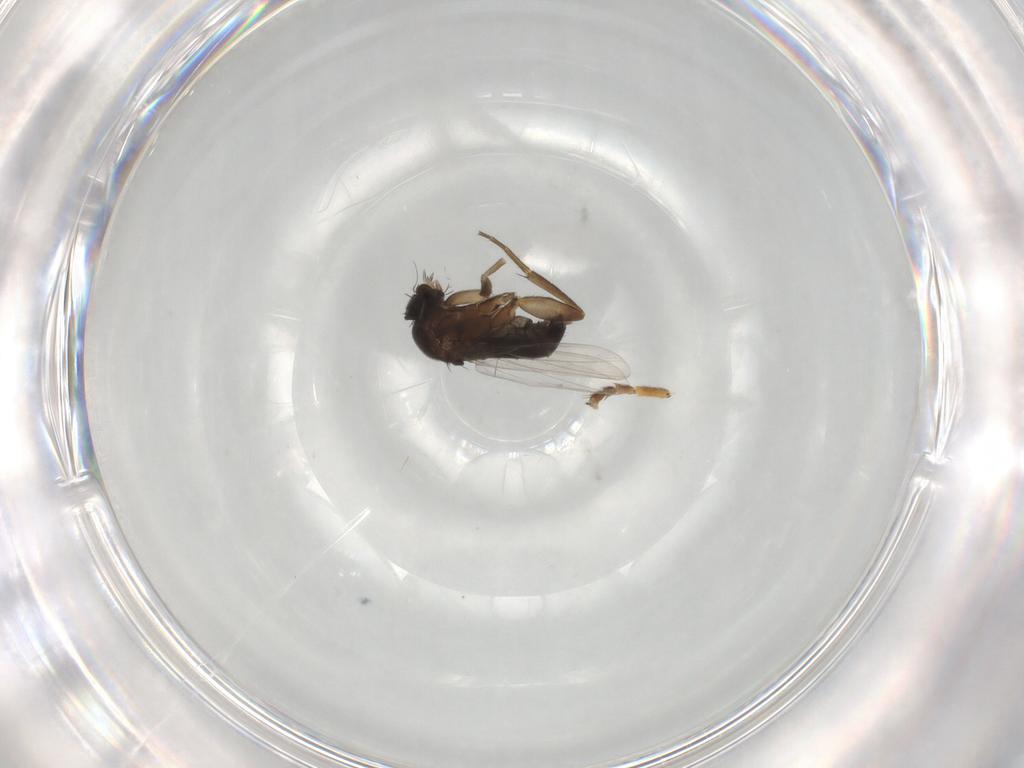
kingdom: Animalia
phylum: Arthropoda
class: Insecta
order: Diptera
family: Phoridae
